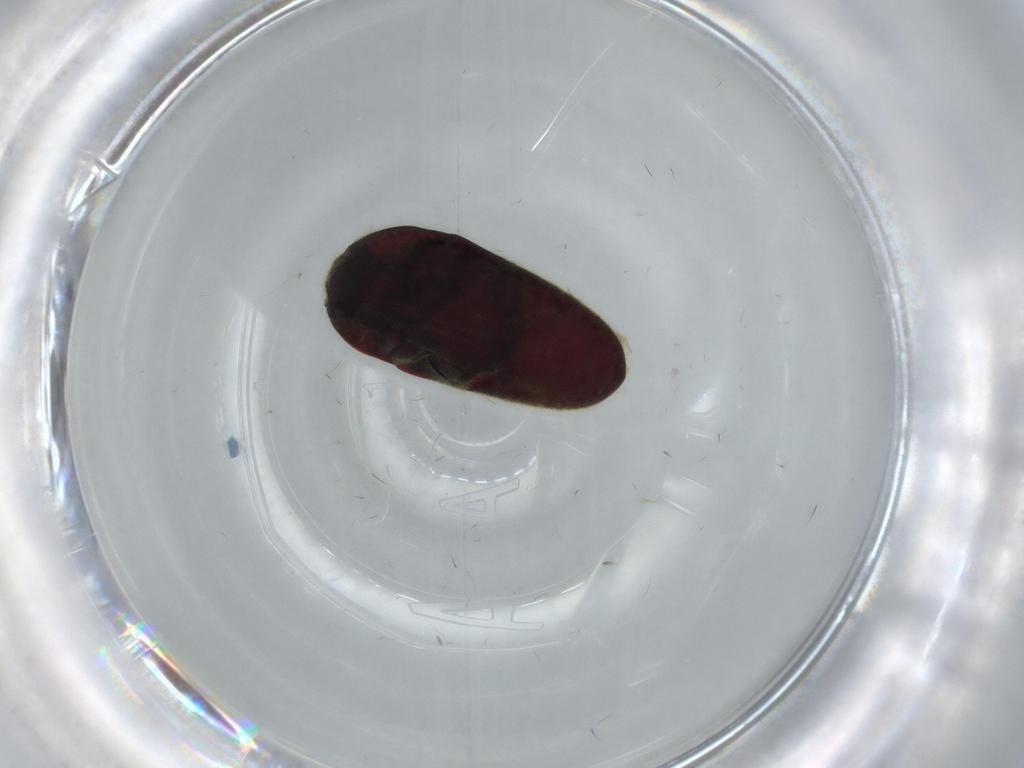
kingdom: Animalia
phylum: Arthropoda
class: Insecta
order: Coleoptera
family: Throscidae
